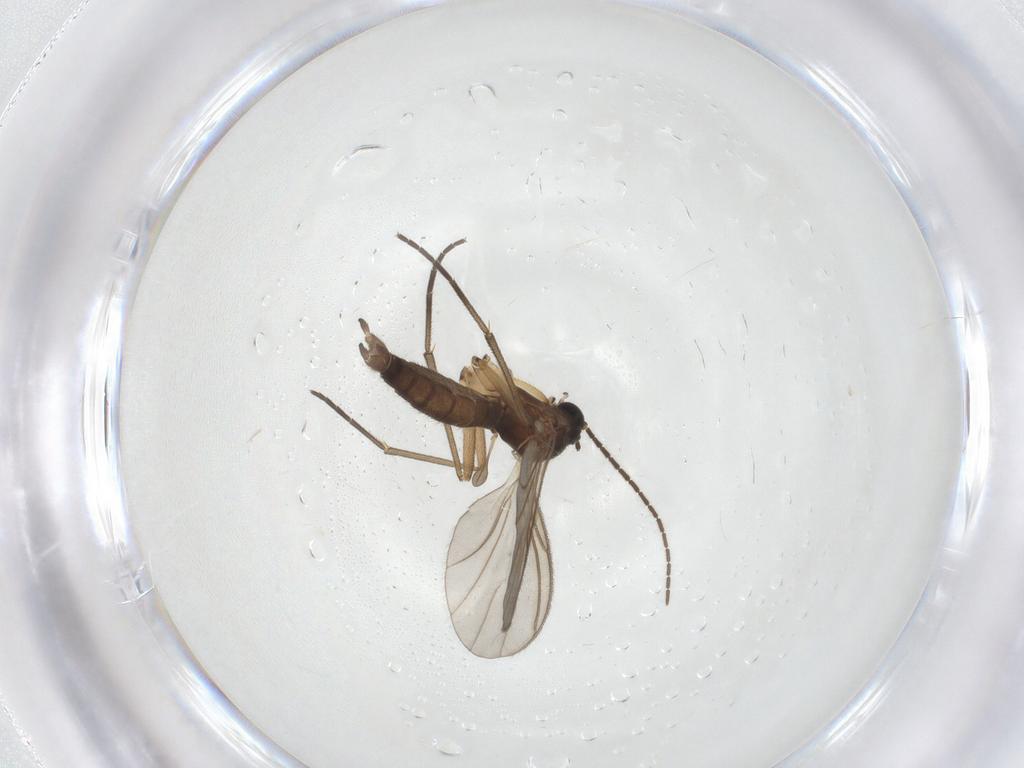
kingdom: Animalia
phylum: Arthropoda
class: Insecta
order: Diptera
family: Sciaridae
